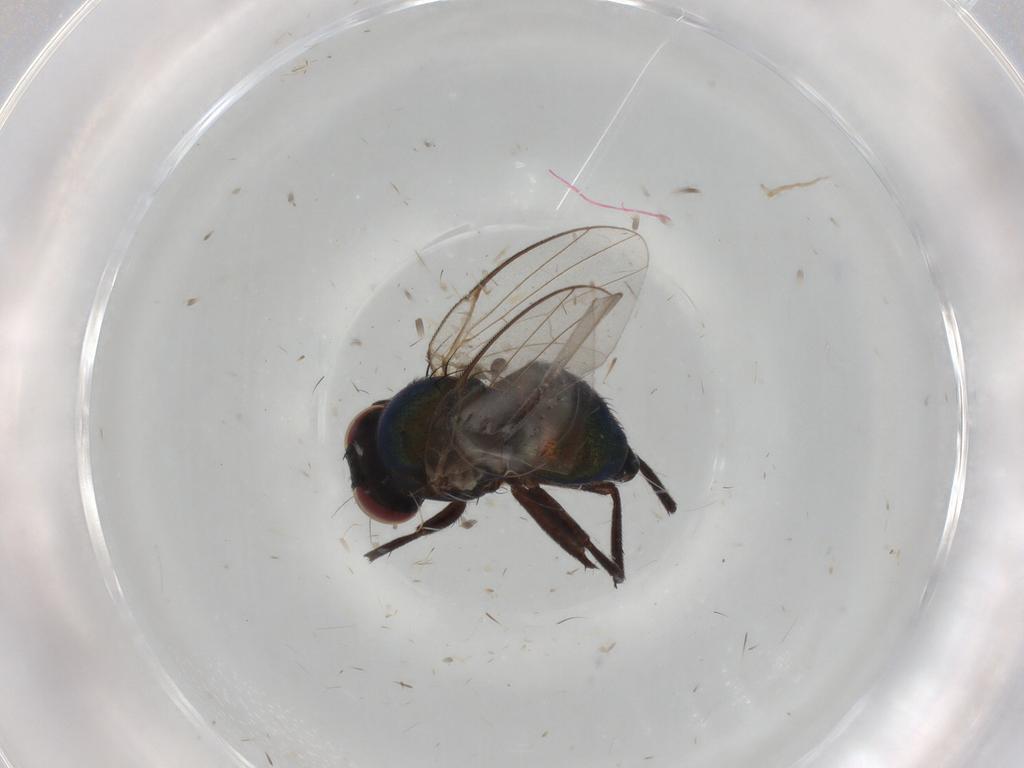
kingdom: Animalia
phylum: Arthropoda
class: Insecta
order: Diptera
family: Agromyzidae
